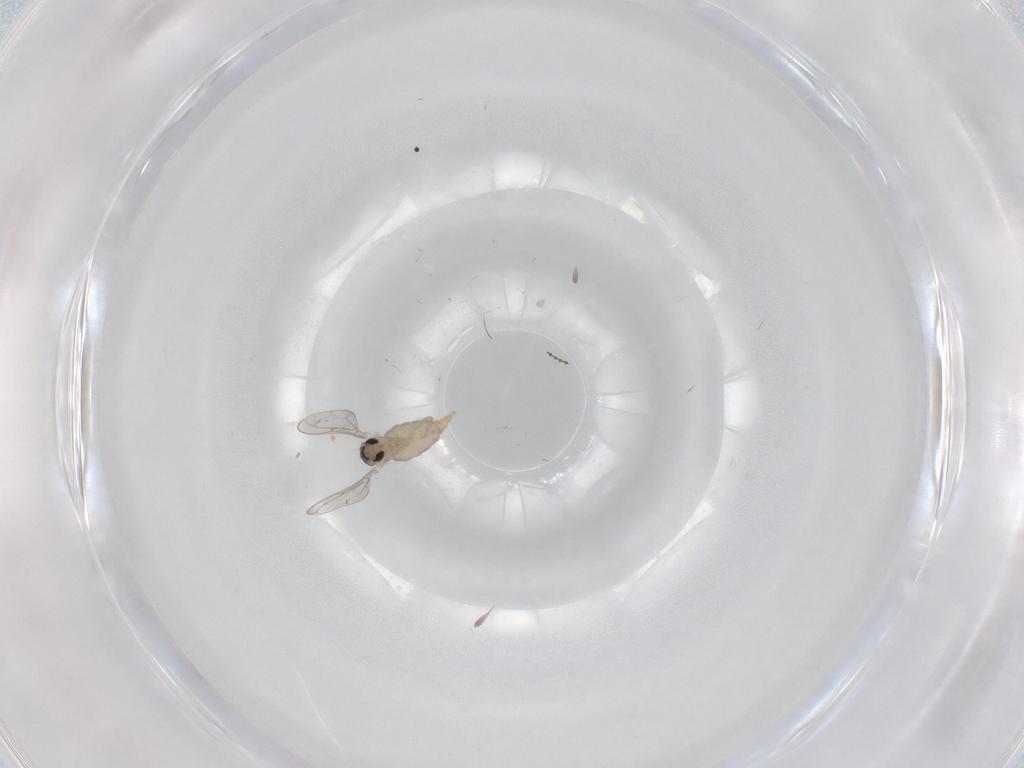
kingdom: Animalia
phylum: Arthropoda
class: Insecta
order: Diptera
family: Cecidomyiidae
